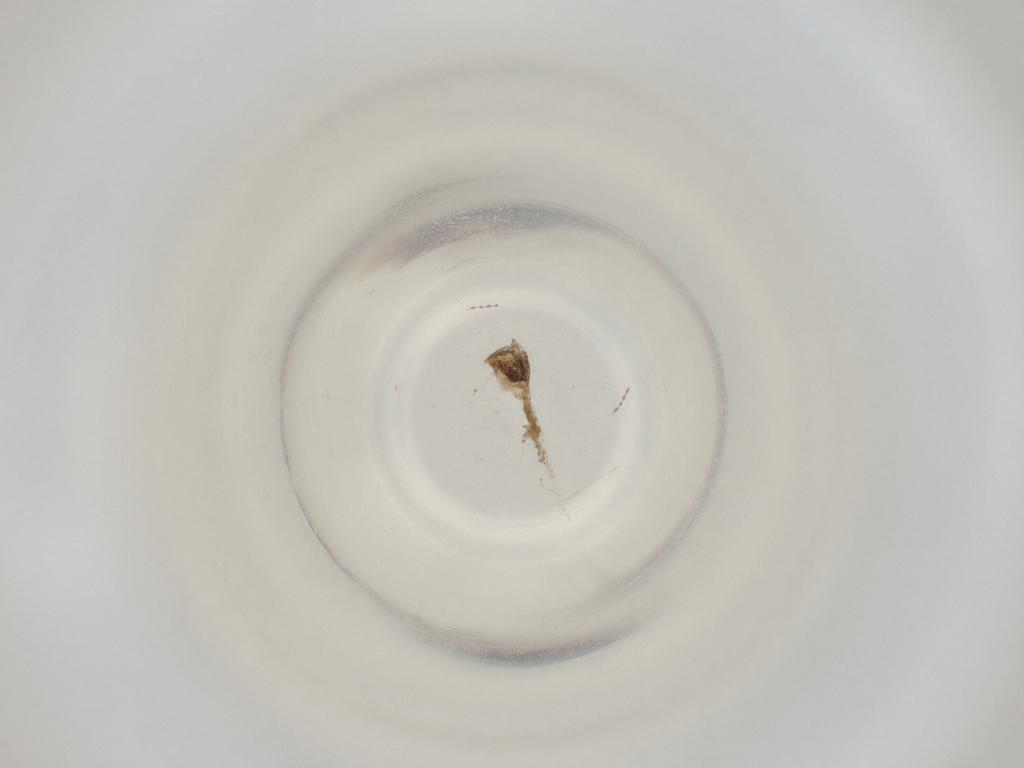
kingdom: Animalia
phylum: Arthropoda
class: Insecta
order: Diptera
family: Cecidomyiidae
